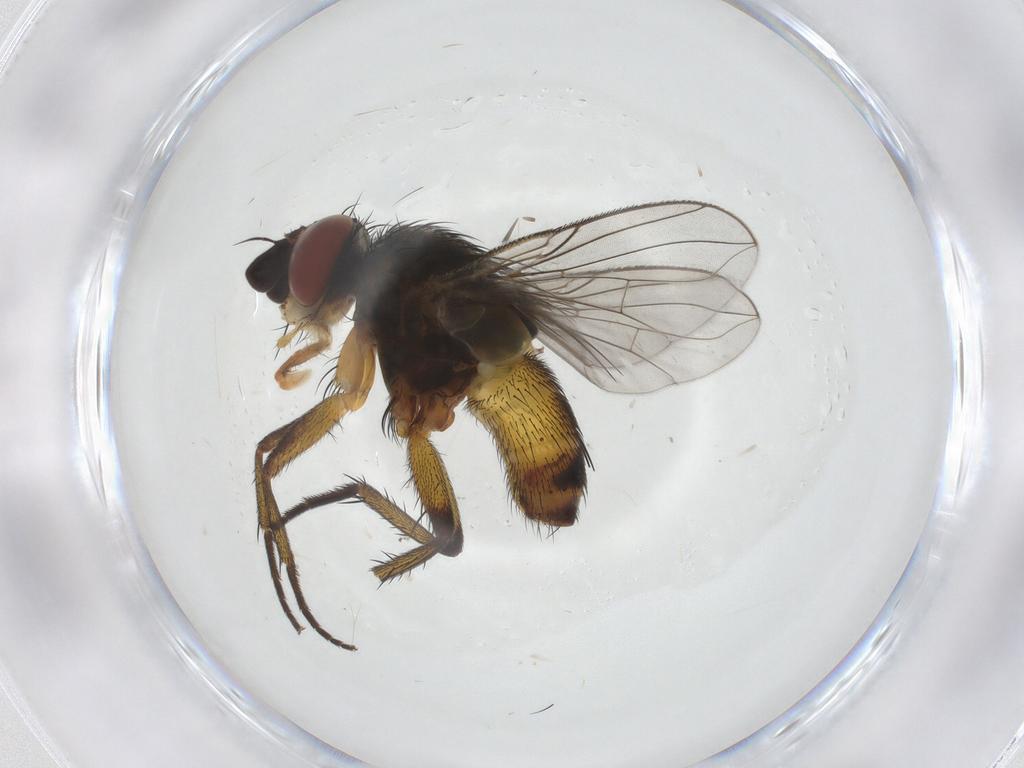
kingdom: Animalia
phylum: Arthropoda
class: Insecta
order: Diptera
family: Tachinidae
